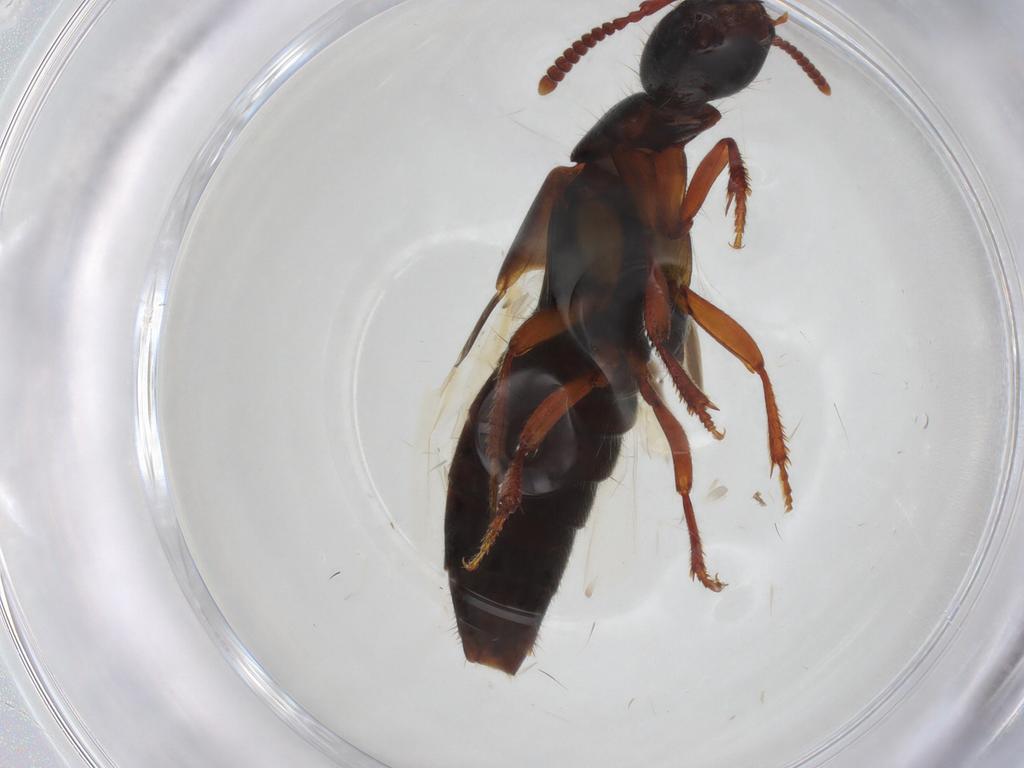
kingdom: Animalia
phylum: Arthropoda
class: Insecta
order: Coleoptera
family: Staphylinidae
